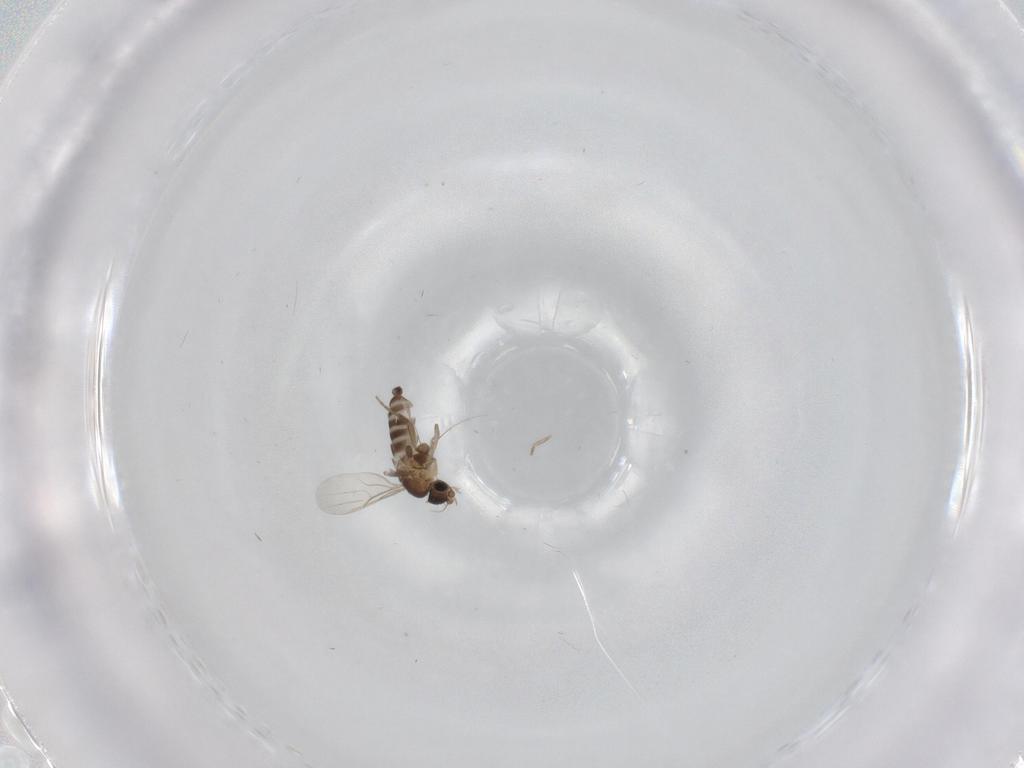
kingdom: Animalia
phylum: Arthropoda
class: Insecta
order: Diptera
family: Phoridae
